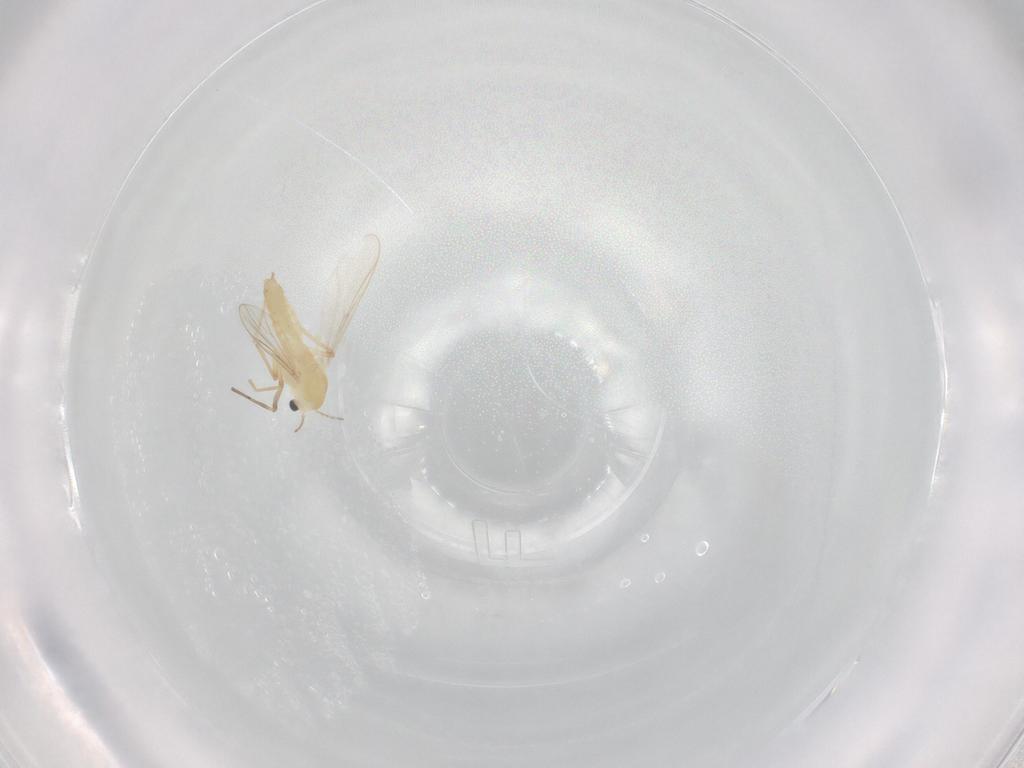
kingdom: Animalia
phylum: Arthropoda
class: Insecta
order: Diptera
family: Chironomidae
